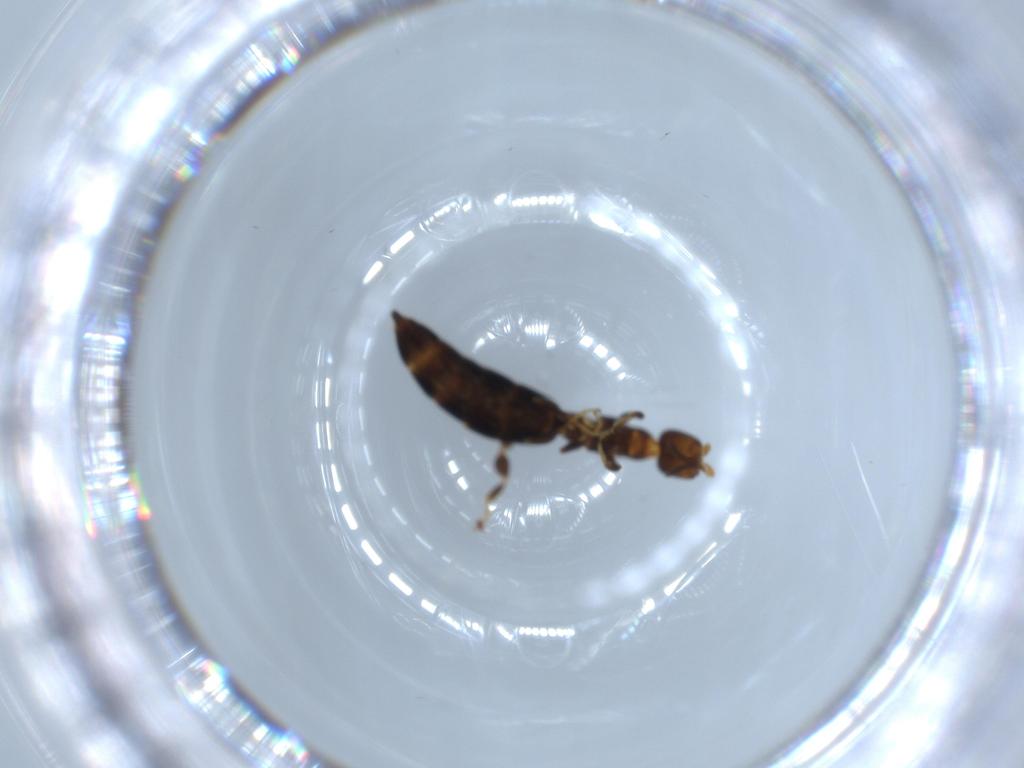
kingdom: Animalia
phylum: Arthropoda
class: Insecta
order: Hymenoptera
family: Bethylidae
